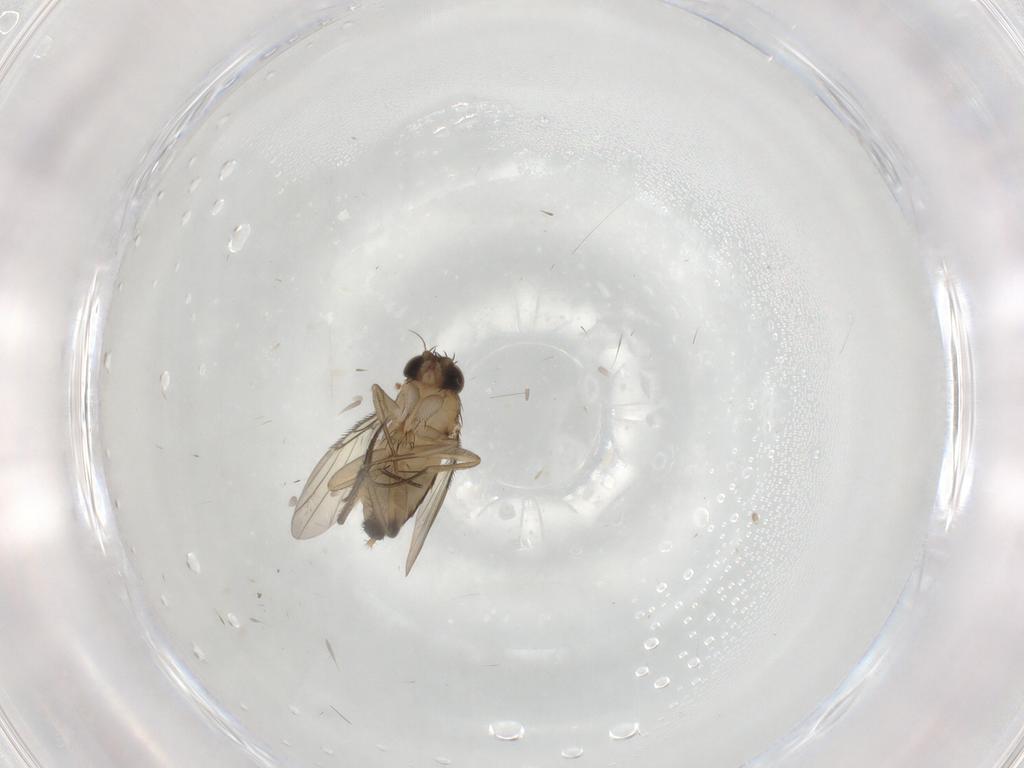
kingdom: Animalia
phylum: Arthropoda
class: Insecta
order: Diptera
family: Phoridae
